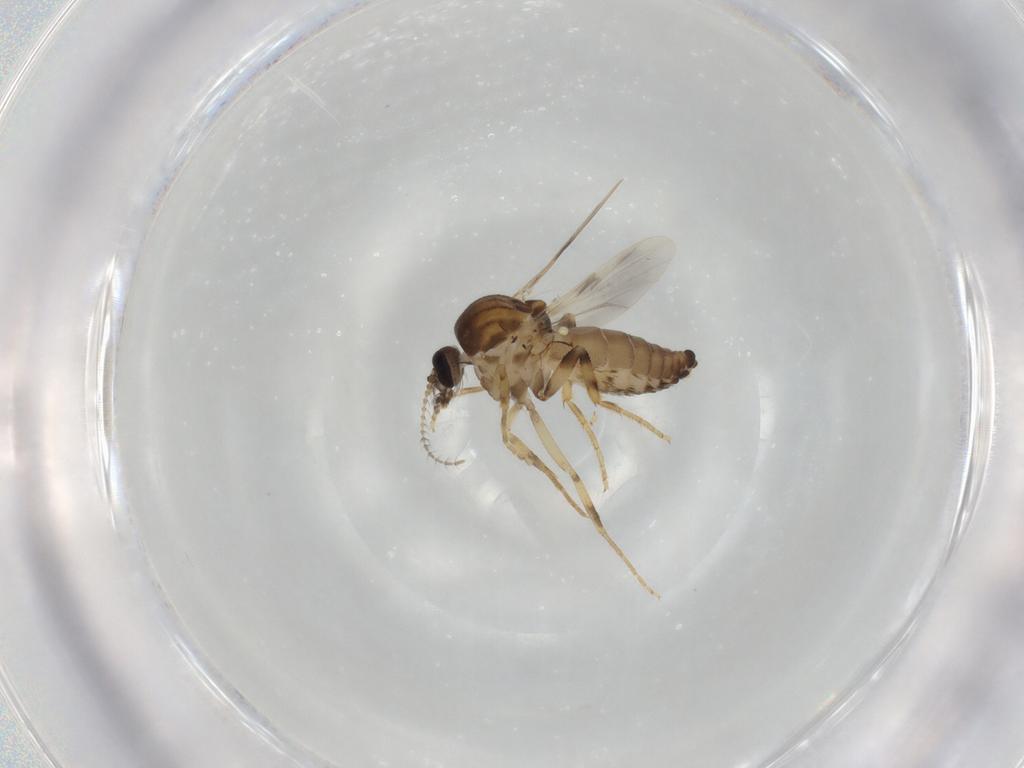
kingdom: Animalia
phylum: Arthropoda
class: Insecta
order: Diptera
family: Ceratopogonidae
